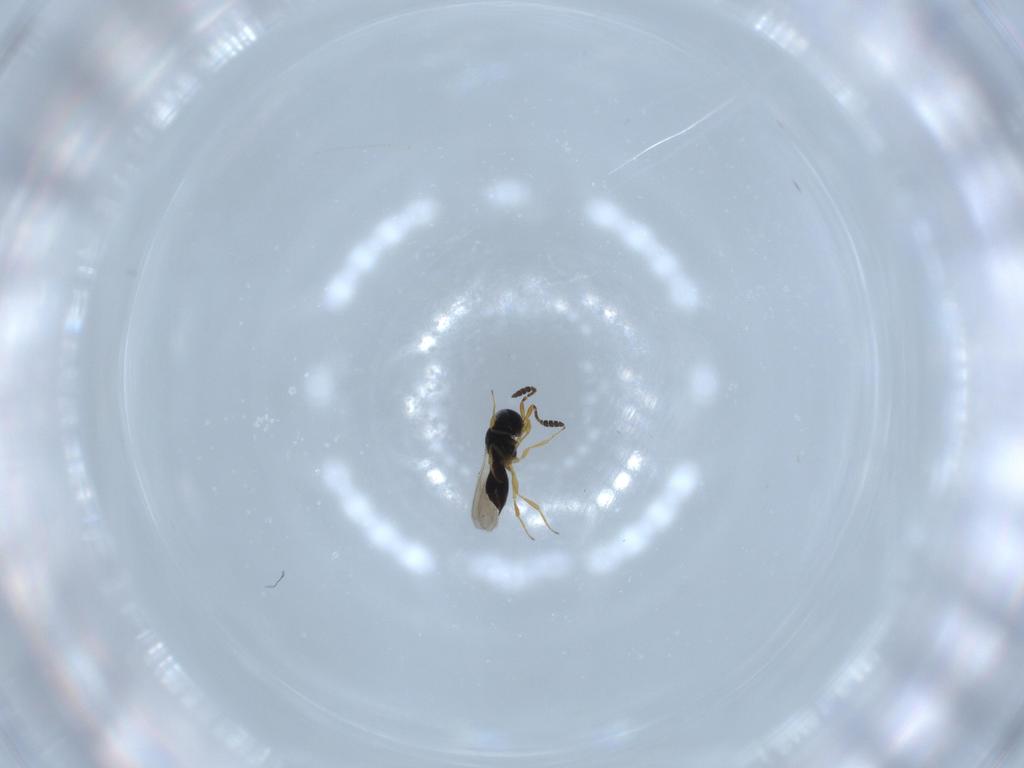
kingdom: Animalia
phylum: Arthropoda
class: Insecta
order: Hymenoptera
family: Scelionidae
